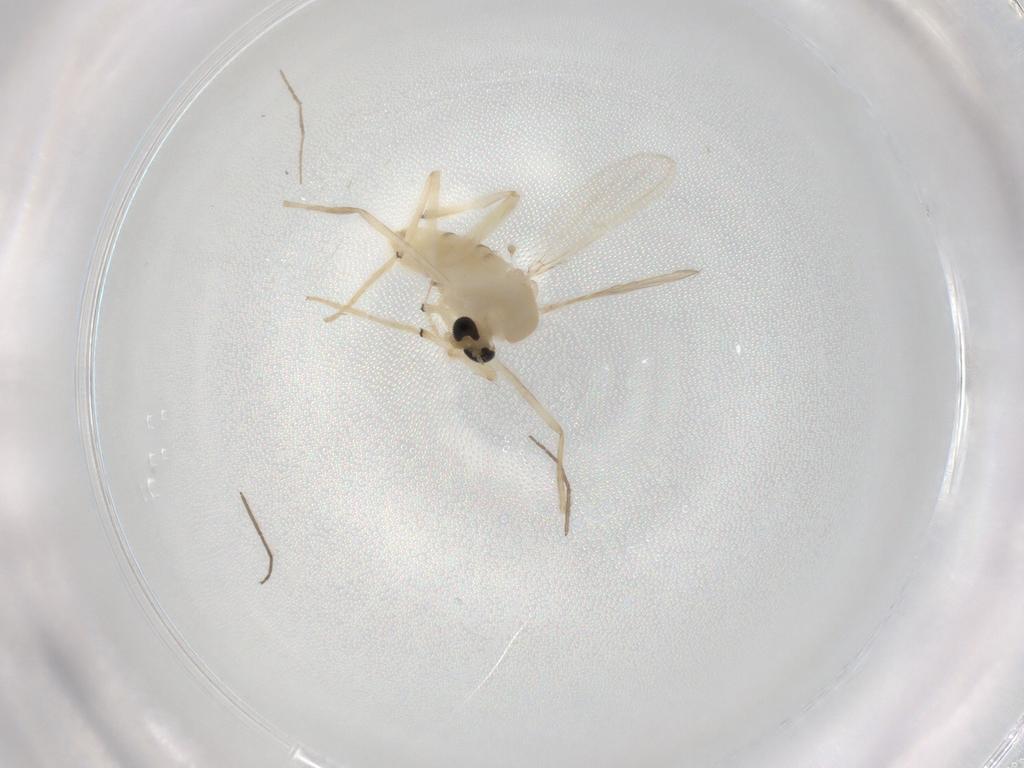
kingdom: Animalia
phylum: Arthropoda
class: Insecta
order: Diptera
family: Chironomidae
